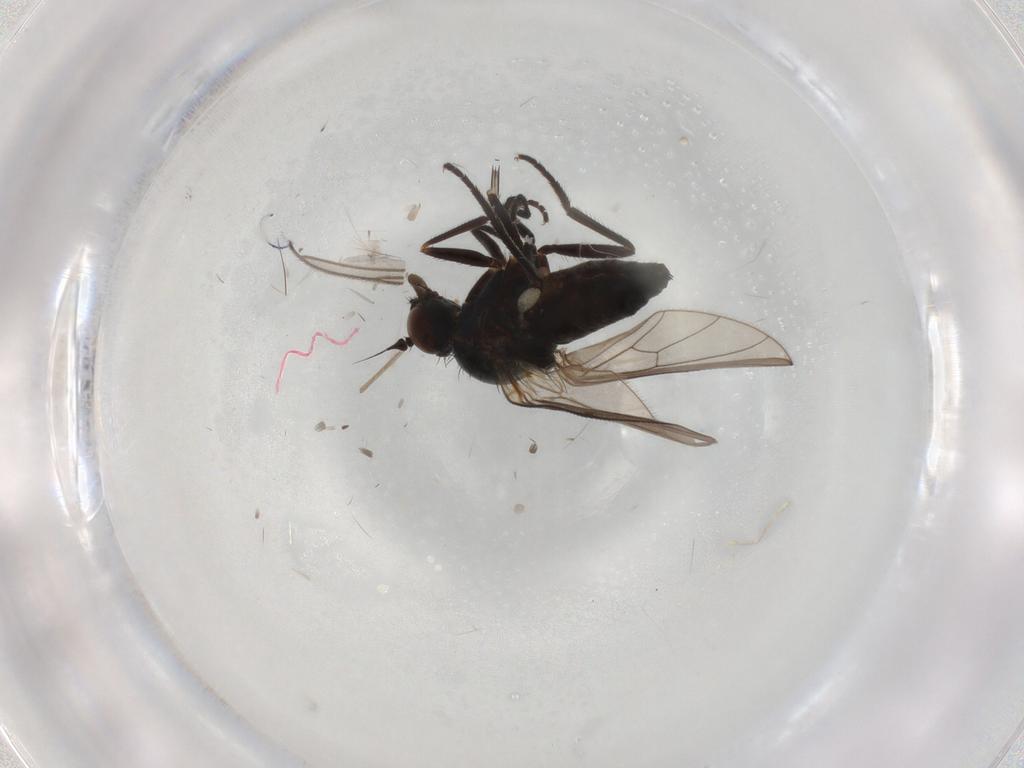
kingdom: Animalia
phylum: Arthropoda
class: Insecta
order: Diptera
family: Dolichopodidae
